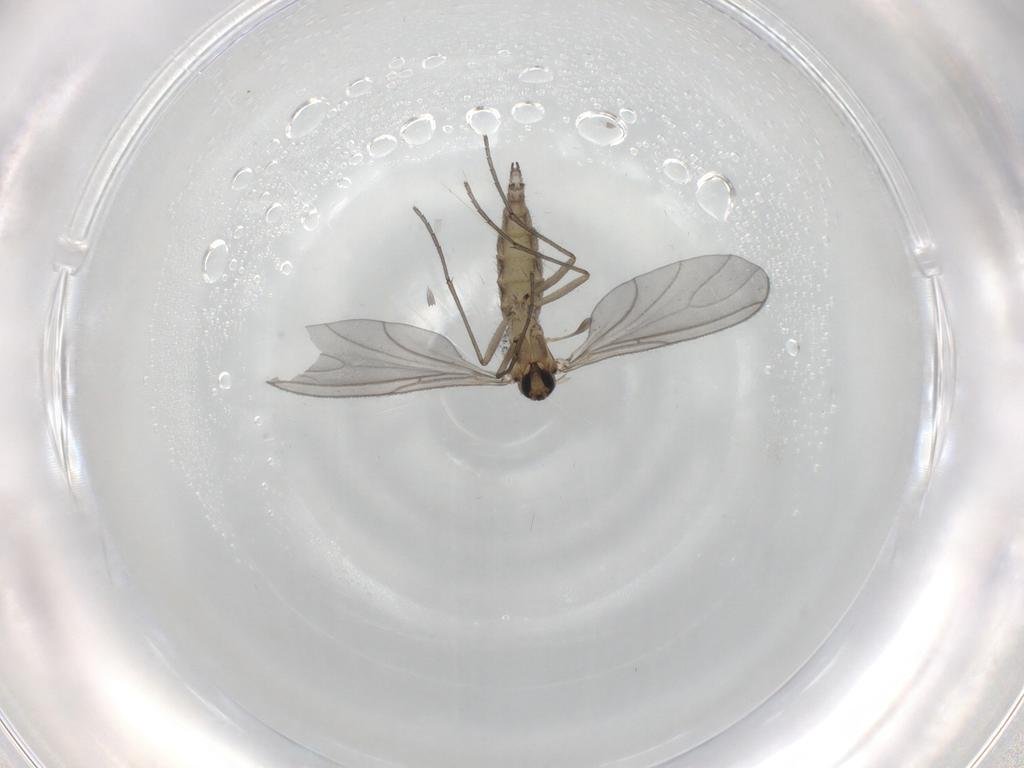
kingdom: Animalia
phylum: Arthropoda
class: Insecta
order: Diptera
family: Sciaridae
